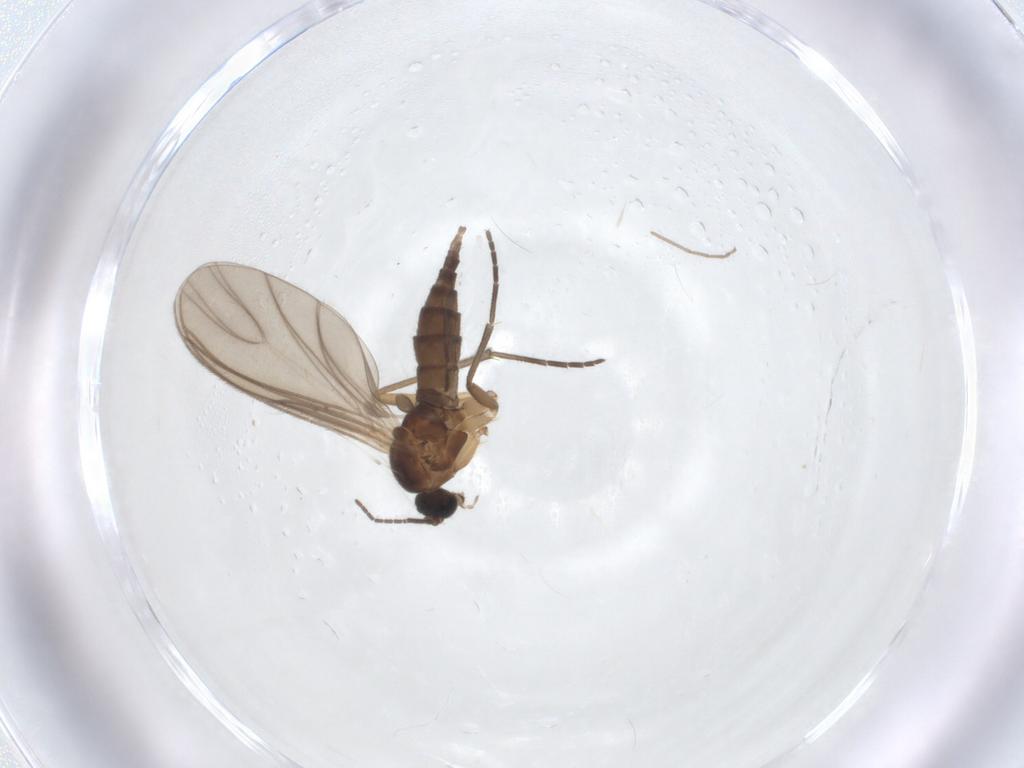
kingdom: Animalia
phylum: Arthropoda
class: Insecta
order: Diptera
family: Sciaridae
